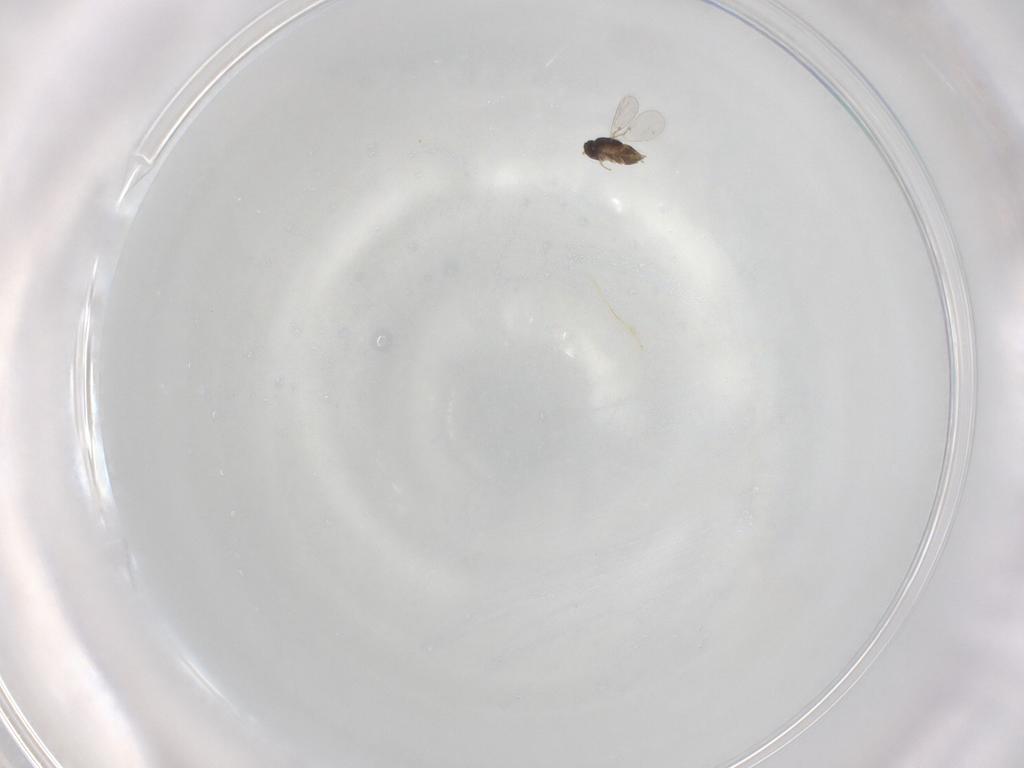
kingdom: Animalia
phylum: Arthropoda
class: Insecta
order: Hymenoptera
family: Encyrtidae
